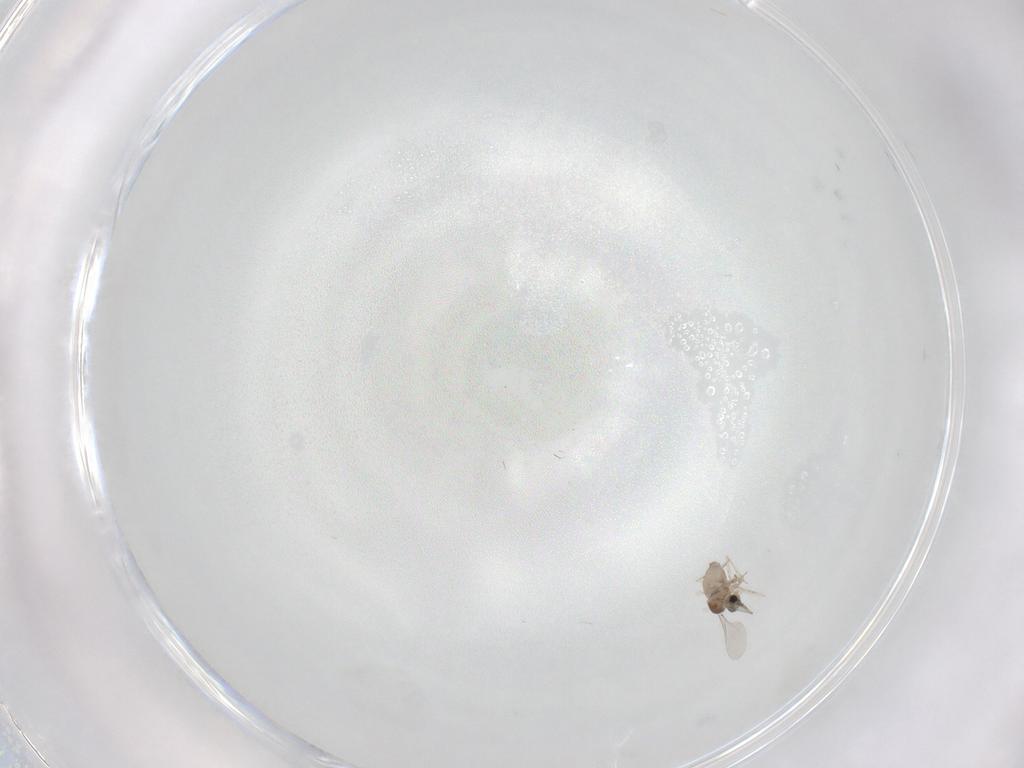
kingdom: Animalia
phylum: Arthropoda
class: Insecta
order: Diptera
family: Cecidomyiidae
